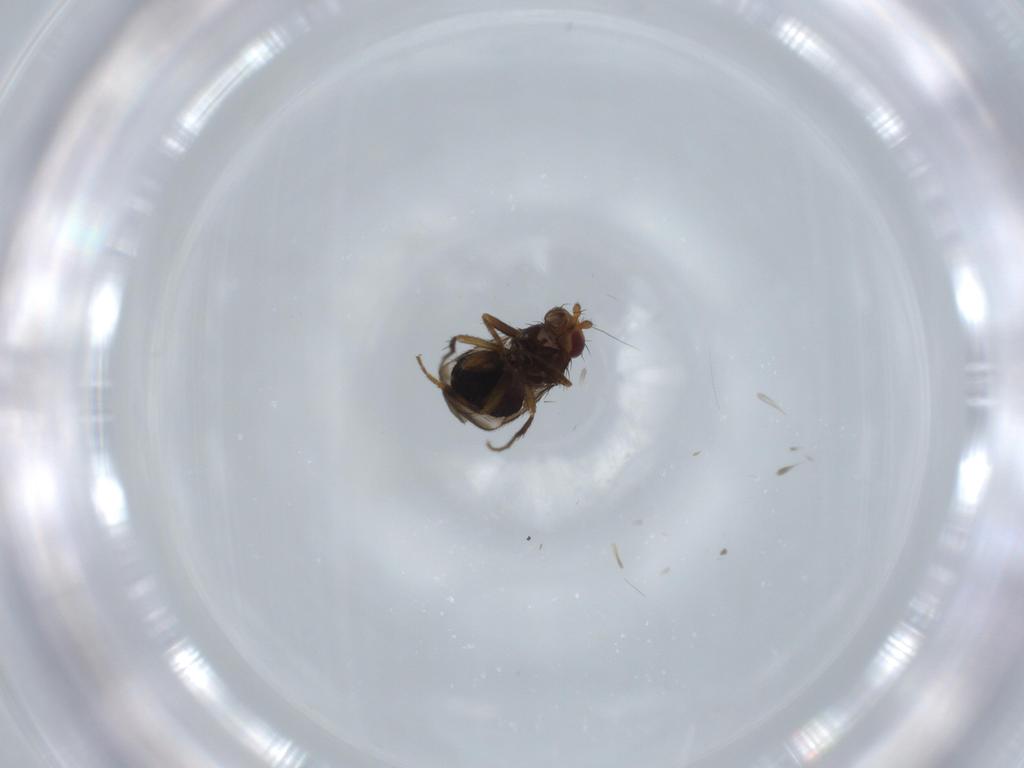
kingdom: Animalia
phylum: Arthropoda
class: Insecta
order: Diptera
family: Sphaeroceridae
